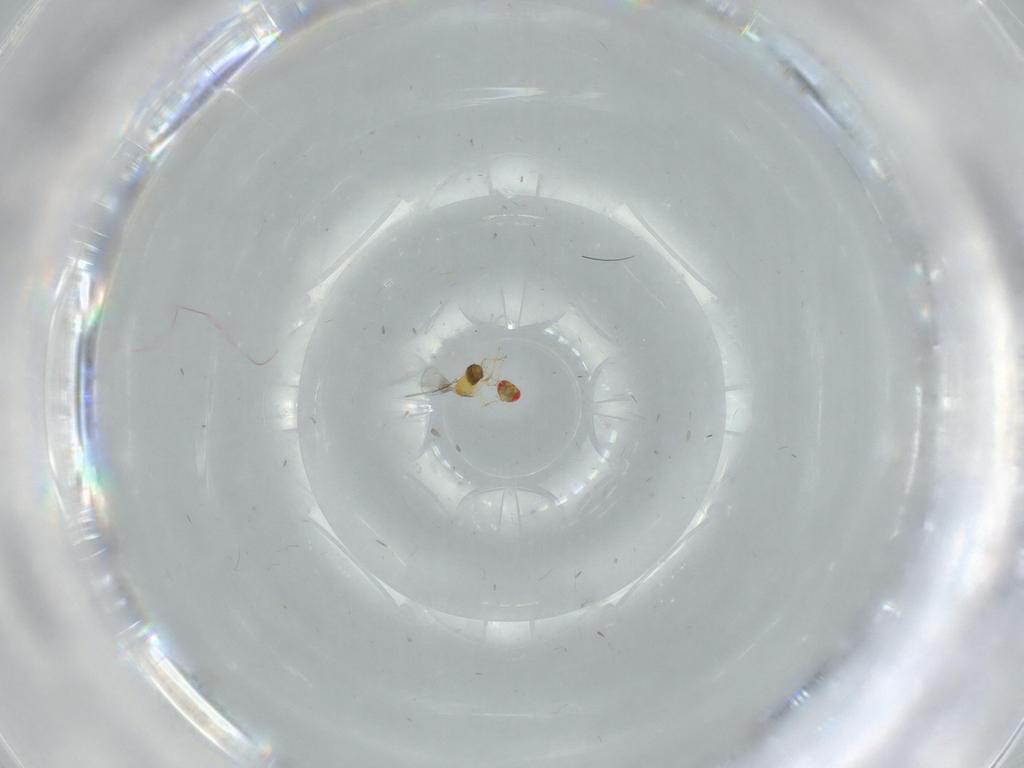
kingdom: Animalia
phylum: Arthropoda
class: Insecta
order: Hymenoptera
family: Trichogrammatidae
